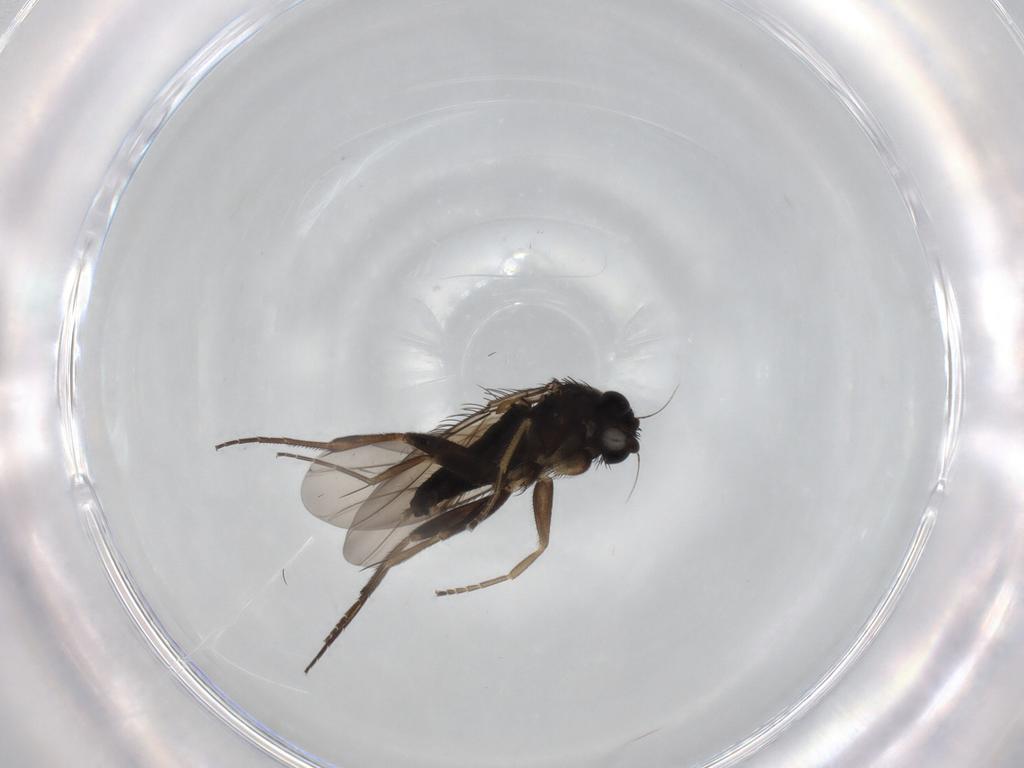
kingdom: Animalia
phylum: Arthropoda
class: Insecta
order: Diptera
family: Phoridae
